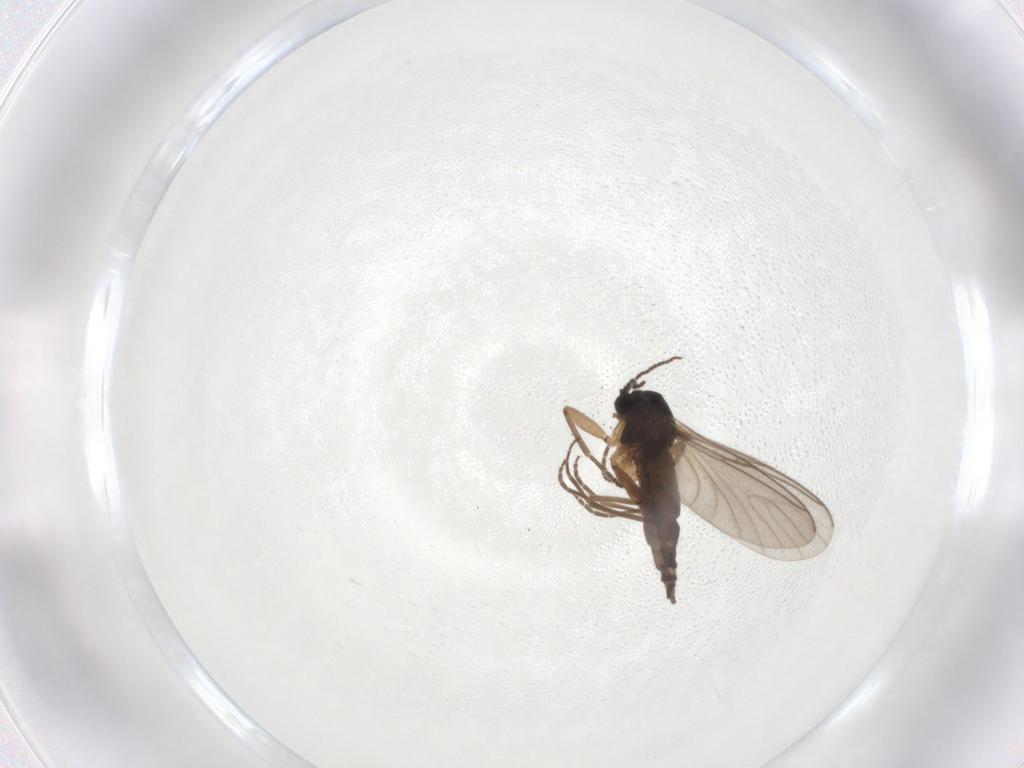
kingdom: Animalia
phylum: Arthropoda
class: Insecta
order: Diptera
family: Sciaridae
